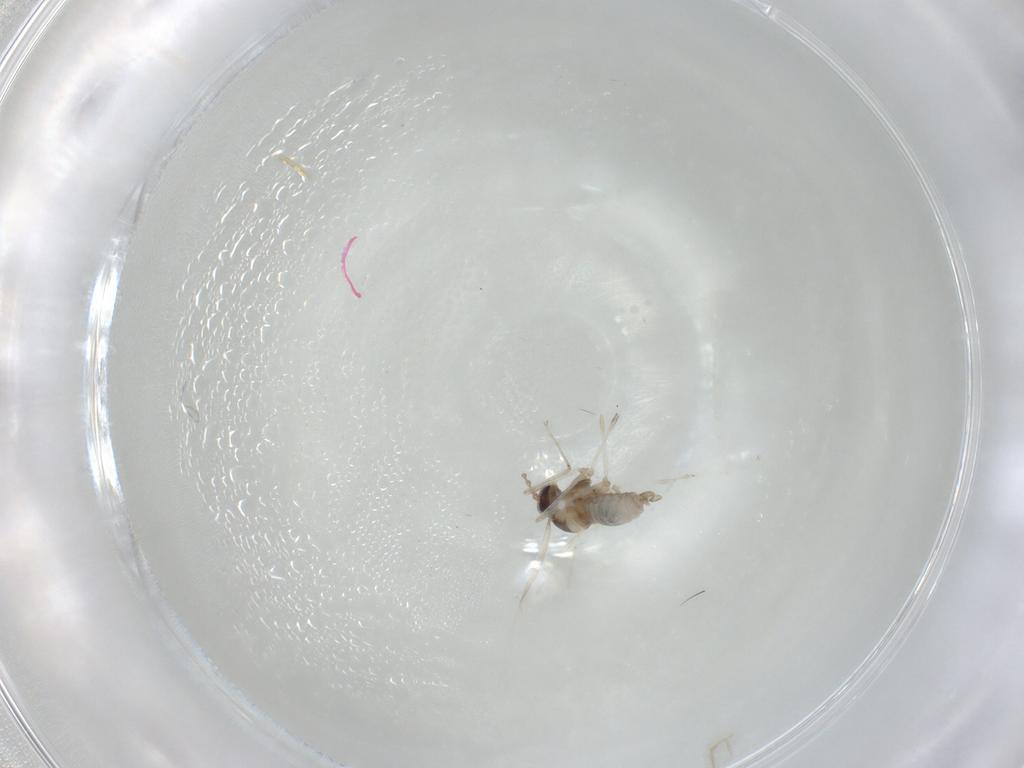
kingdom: Animalia
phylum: Arthropoda
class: Insecta
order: Diptera
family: Cecidomyiidae
